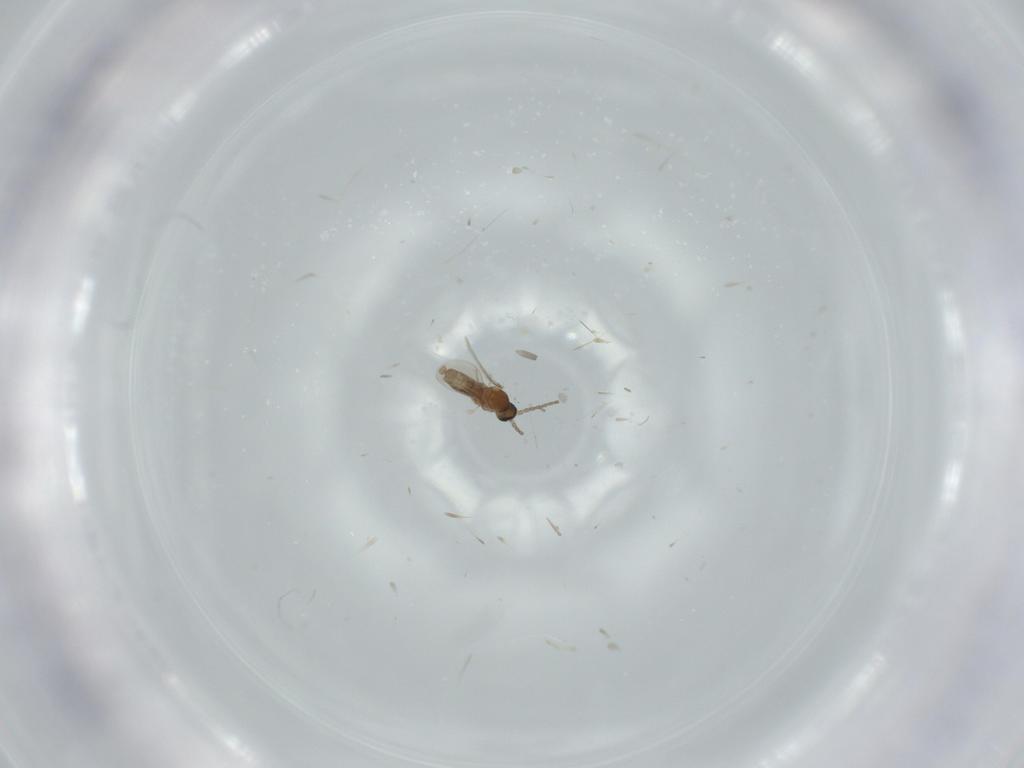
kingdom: Animalia
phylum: Arthropoda
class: Insecta
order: Diptera
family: Cecidomyiidae
